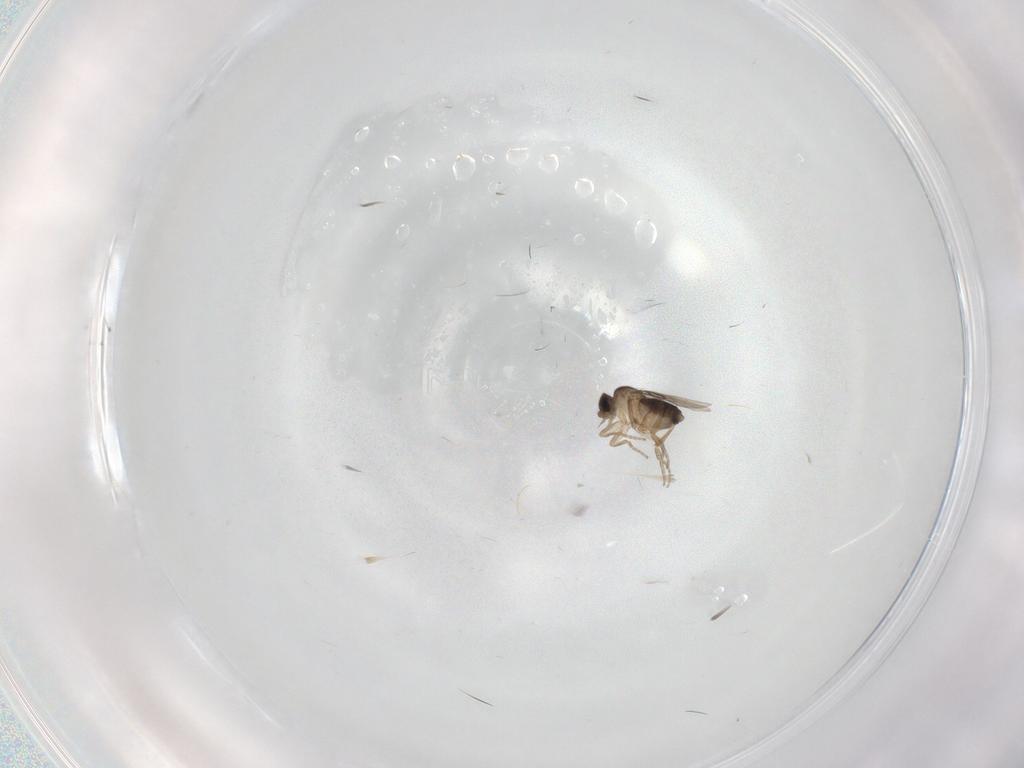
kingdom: Animalia
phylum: Arthropoda
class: Insecta
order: Diptera
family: Phoridae
